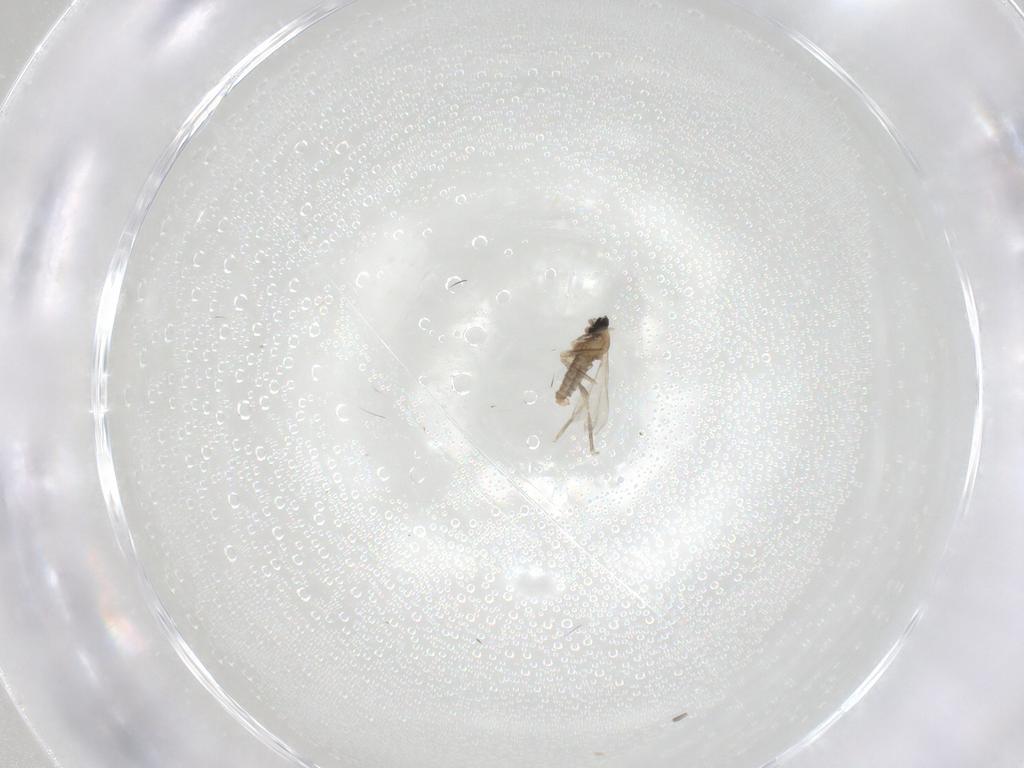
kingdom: Animalia
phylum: Arthropoda
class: Insecta
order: Diptera
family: Cecidomyiidae
